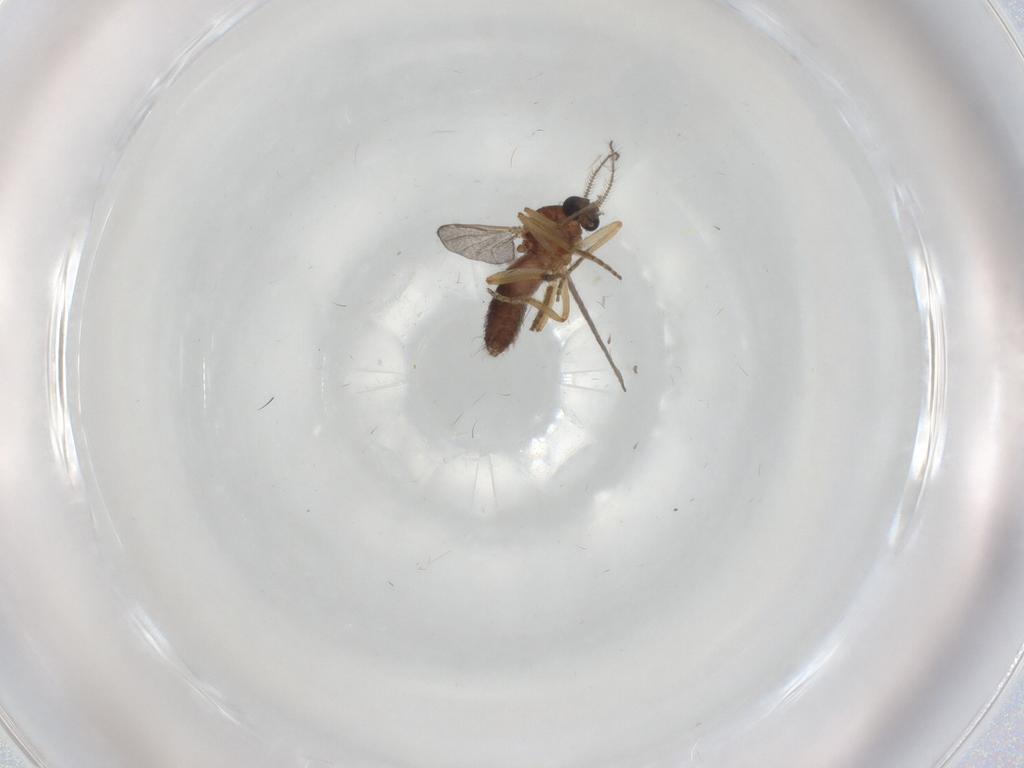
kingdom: Animalia
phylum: Arthropoda
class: Insecta
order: Diptera
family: Ceratopogonidae
